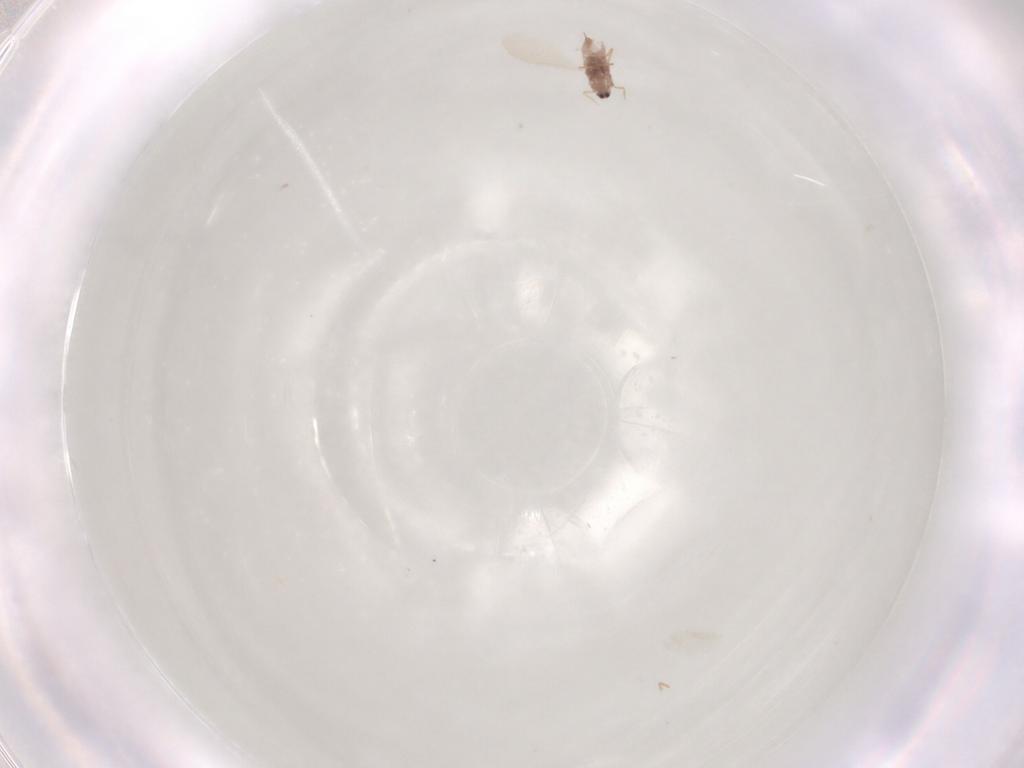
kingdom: Animalia
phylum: Arthropoda
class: Insecta
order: Hemiptera
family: Diaspididae
